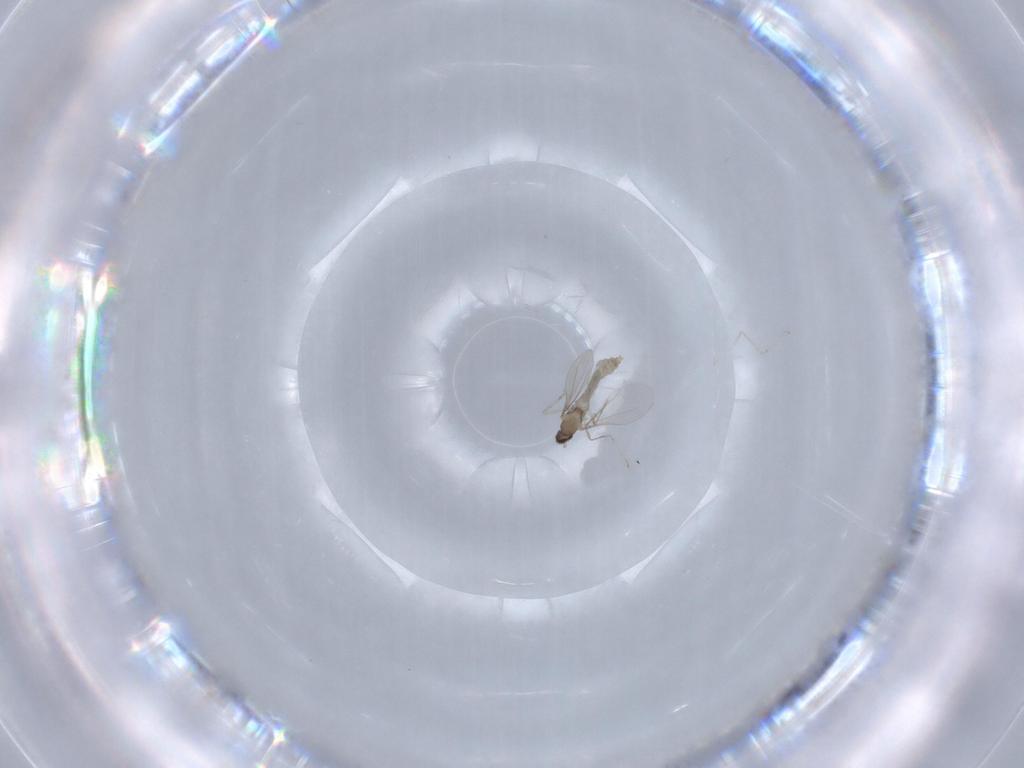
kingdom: Animalia
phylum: Arthropoda
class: Insecta
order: Diptera
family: Cecidomyiidae
